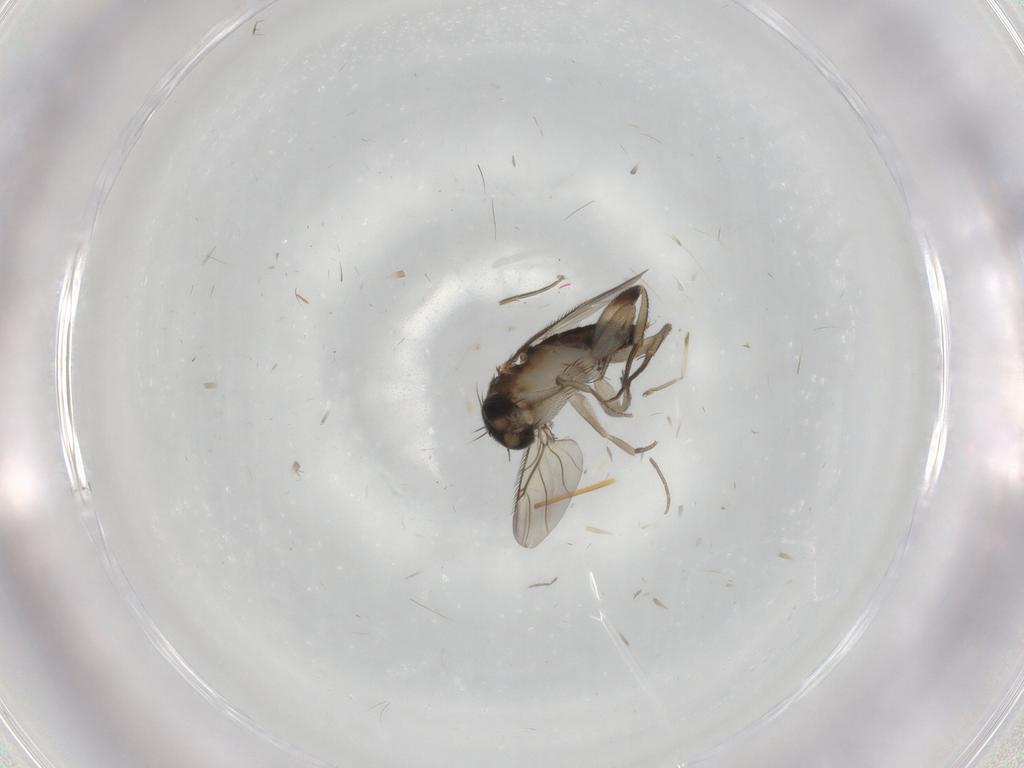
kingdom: Animalia
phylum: Arthropoda
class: Insecta
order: Diptera
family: Phoridae
